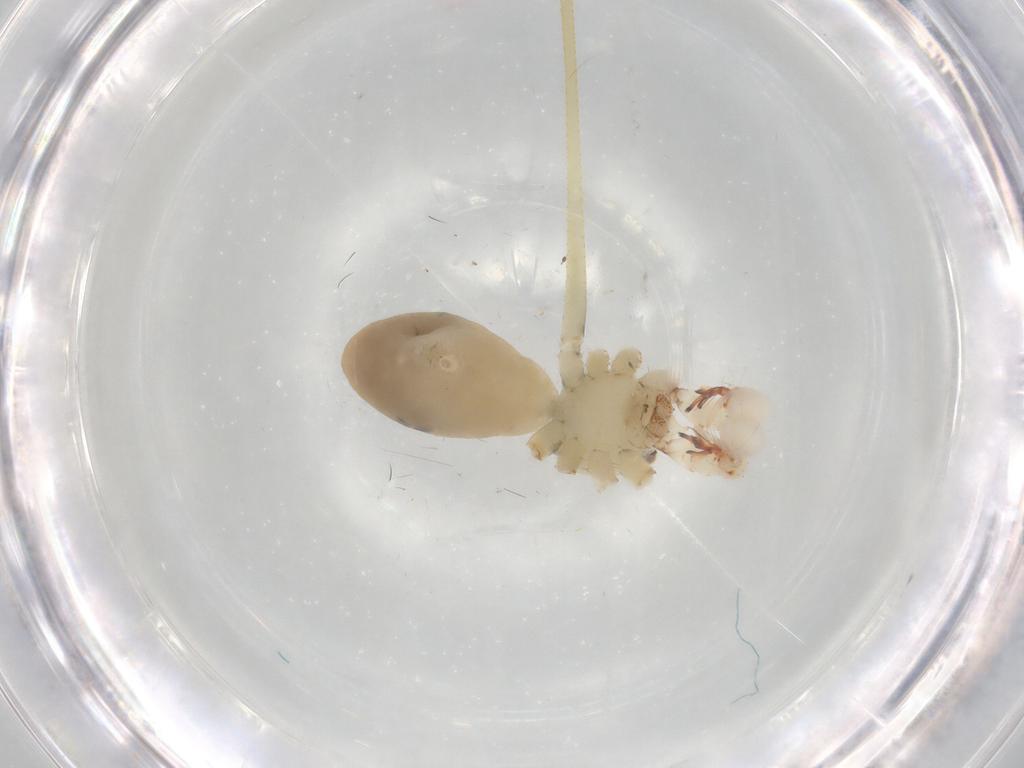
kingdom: Animalia
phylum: Arthropoda
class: Arachnida
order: Araneae
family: Pholcidae
